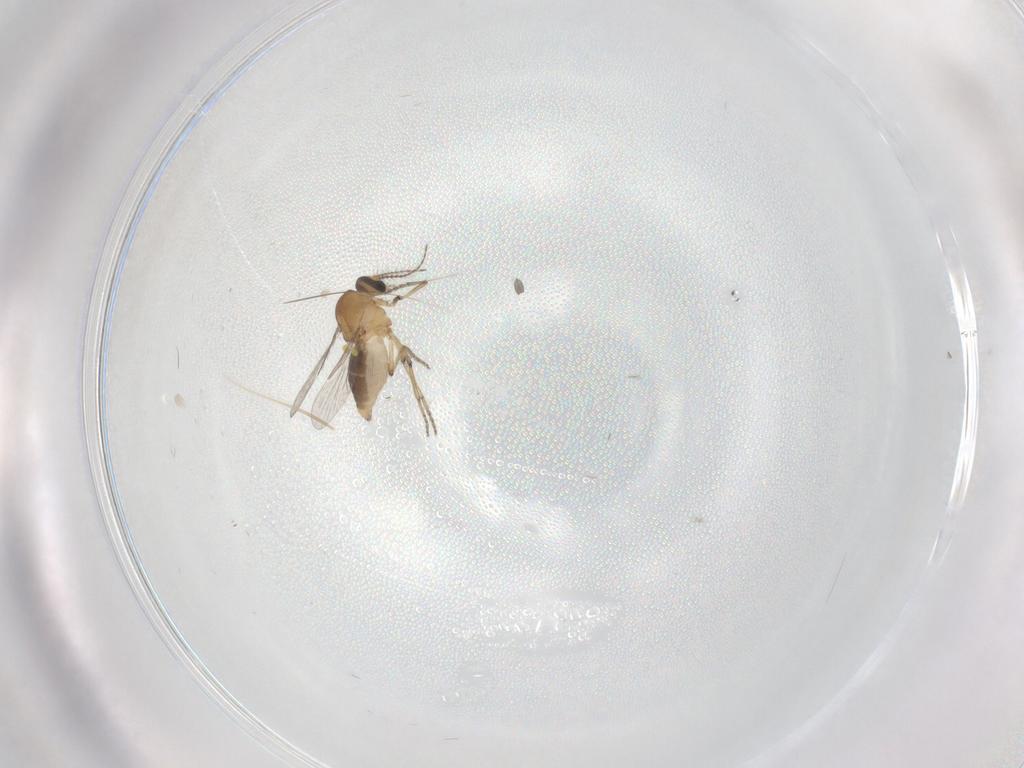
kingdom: Animalia
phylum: Arthropoda
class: Insecta
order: Diptera
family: Ceratopogonidae
